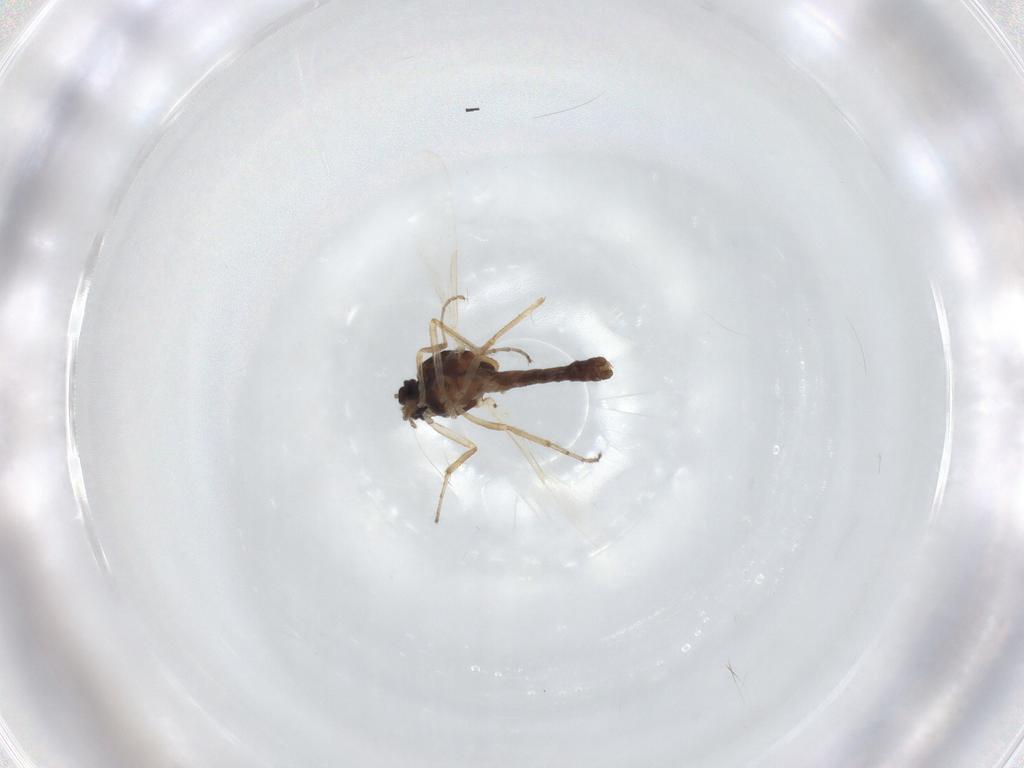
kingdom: Animalia
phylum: Arthropoda
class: Insecta
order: Diptera
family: Ceratopogonidae
